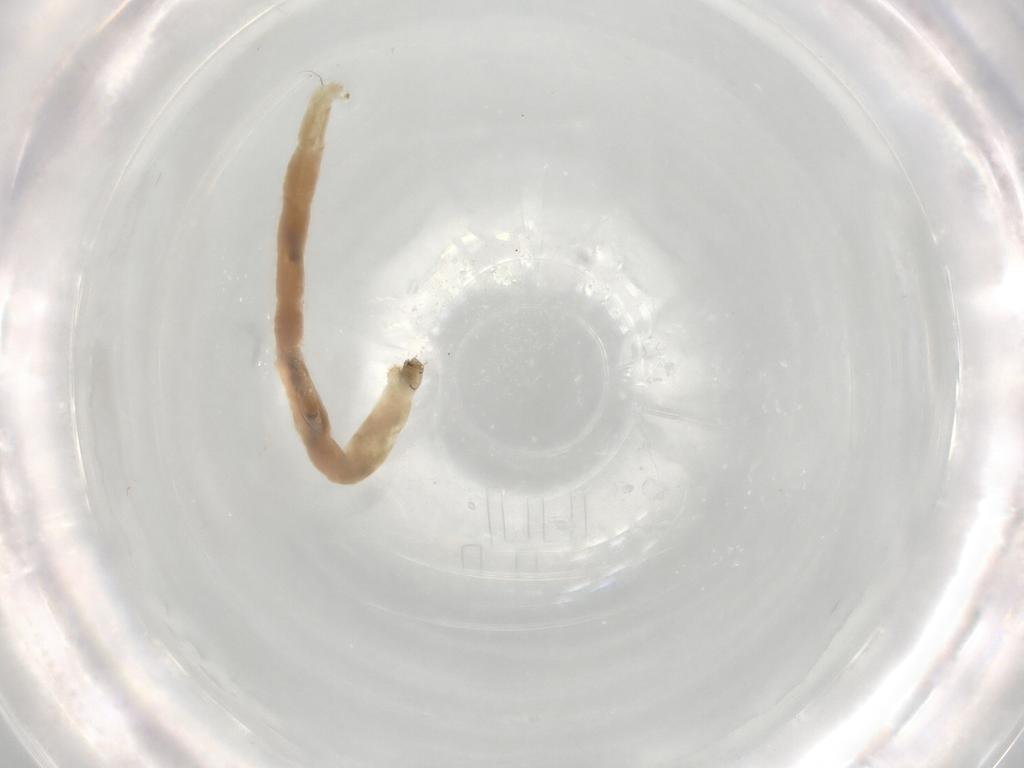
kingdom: Animalia
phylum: Arthropoda
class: Insecta
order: Diptera
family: Chironomidae
